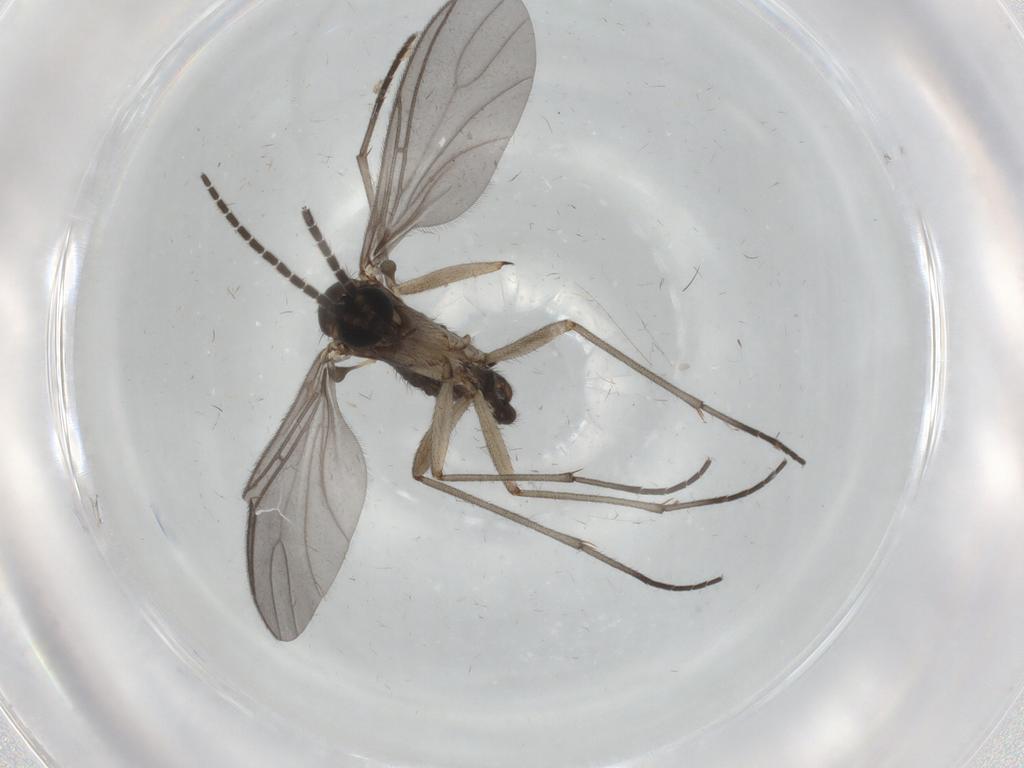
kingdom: Animalia
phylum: Arthropoda
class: Insecta
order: Diptera
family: Sciaridae
